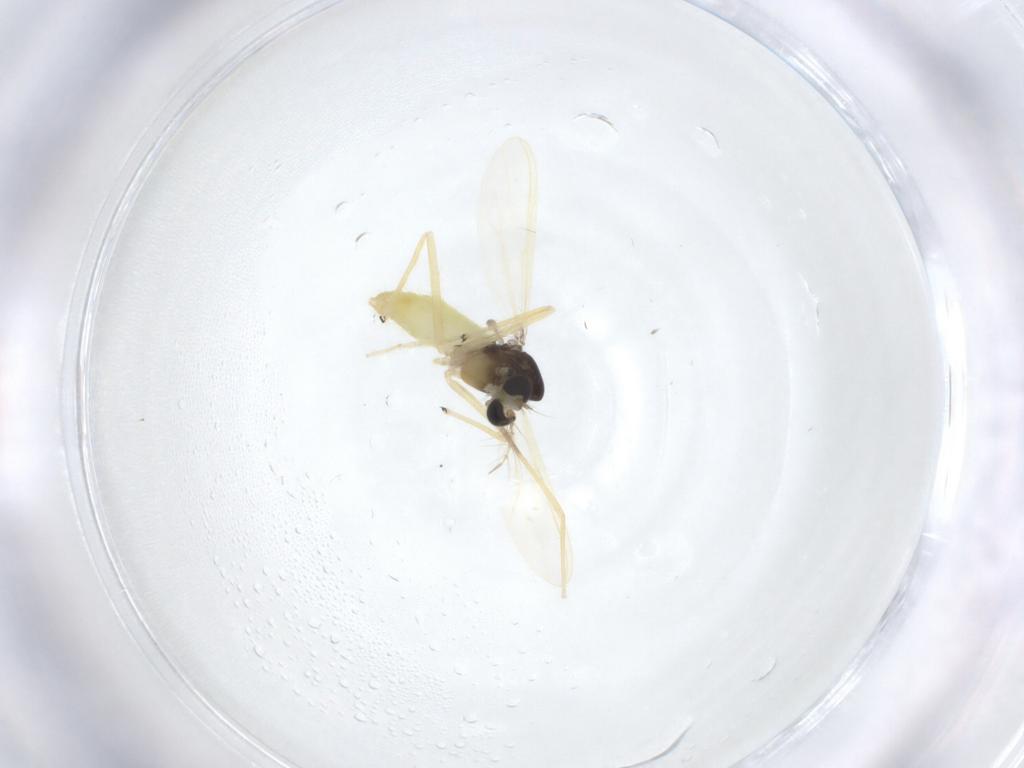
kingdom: Animalia
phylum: Arthropoda
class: Insecta
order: Diptera
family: Chironomidae
